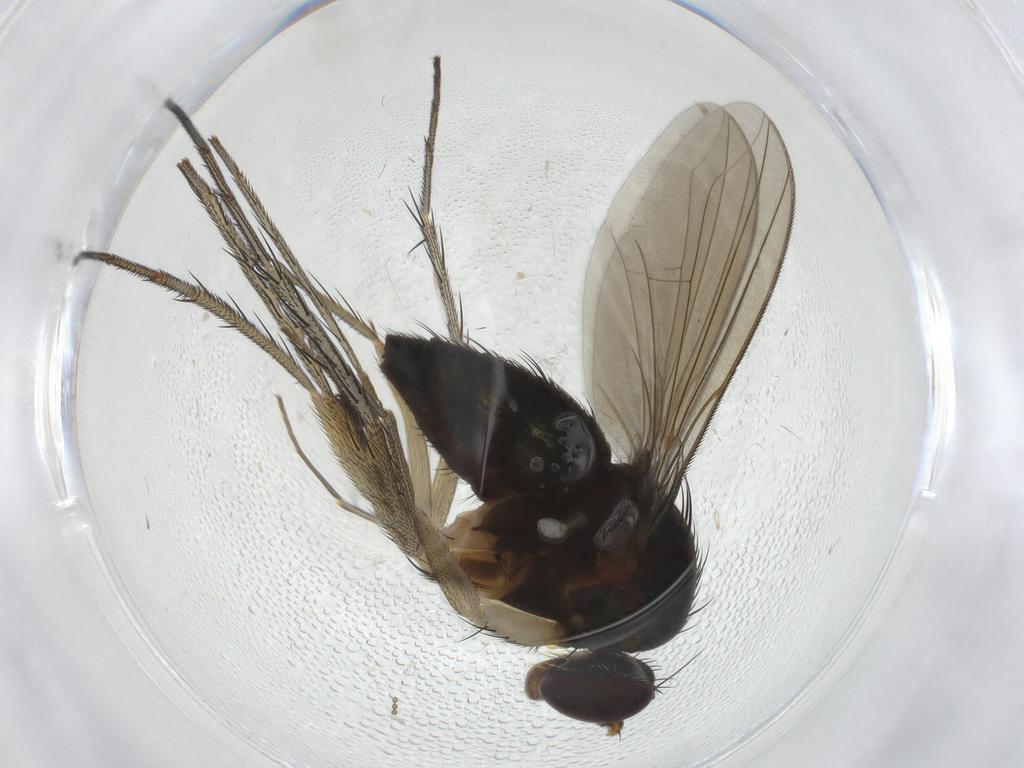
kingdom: Animalia
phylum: Arthropoda
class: Insecta
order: Diptera
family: Dolichopodidae
